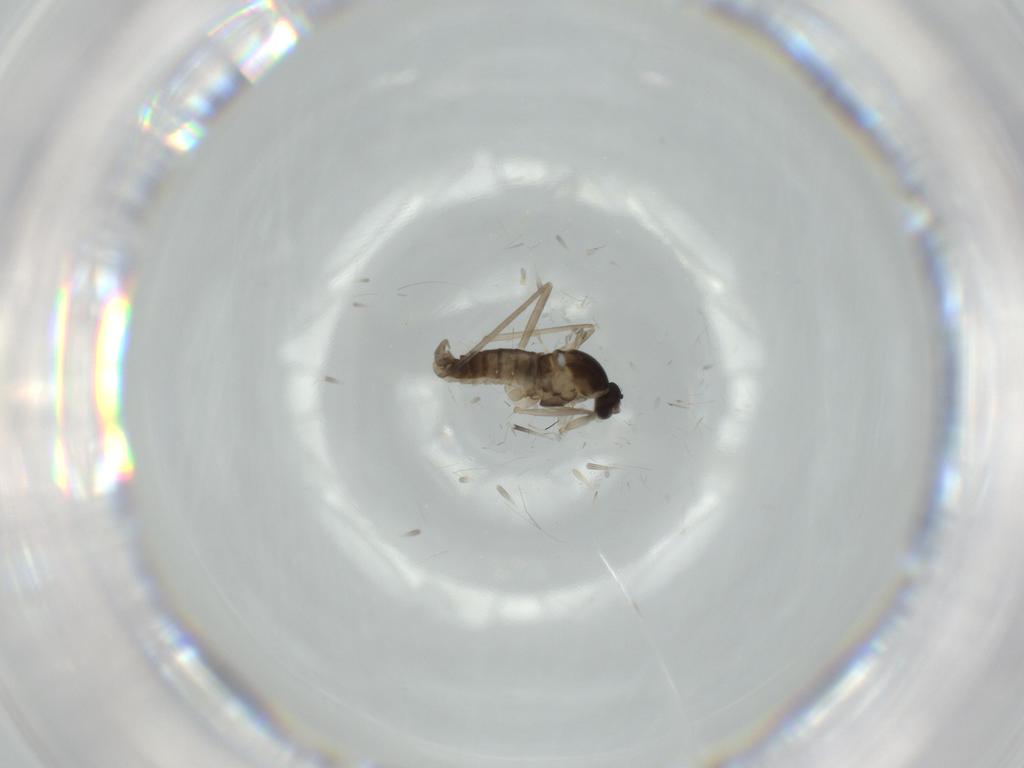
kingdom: Animalia
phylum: Arthropoda
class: Insecta
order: Diptera
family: Cecidomyiidae
